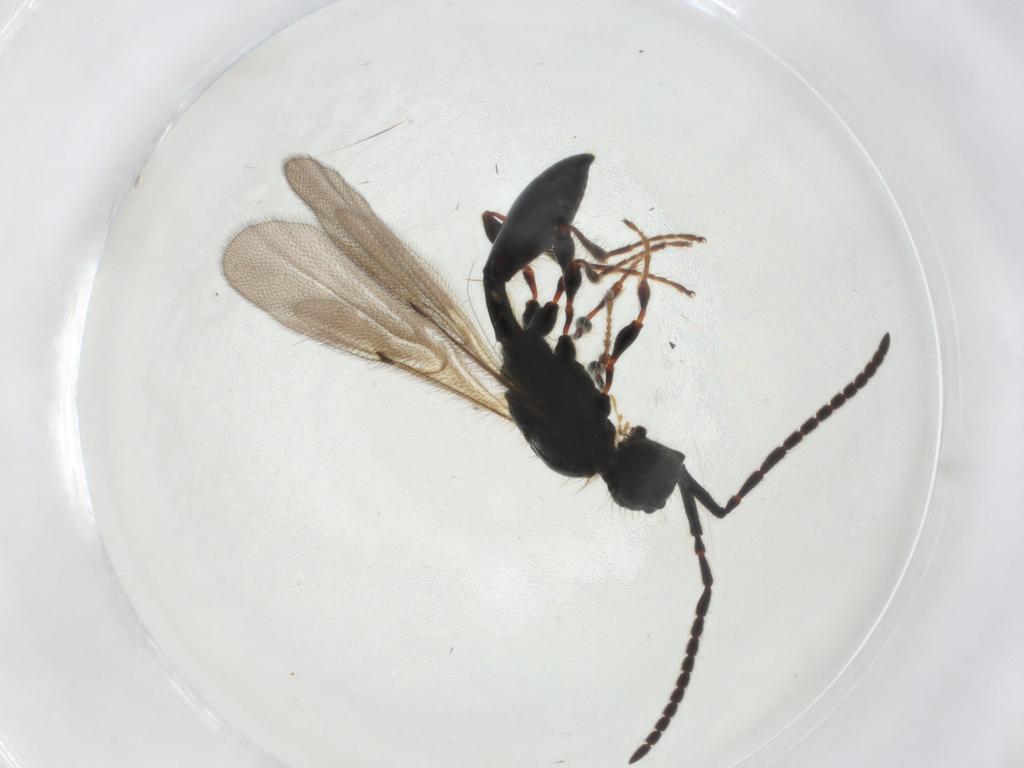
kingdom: Animalia
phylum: Arthropoda
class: Insecta
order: Hymenoptera
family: Diapriidae
